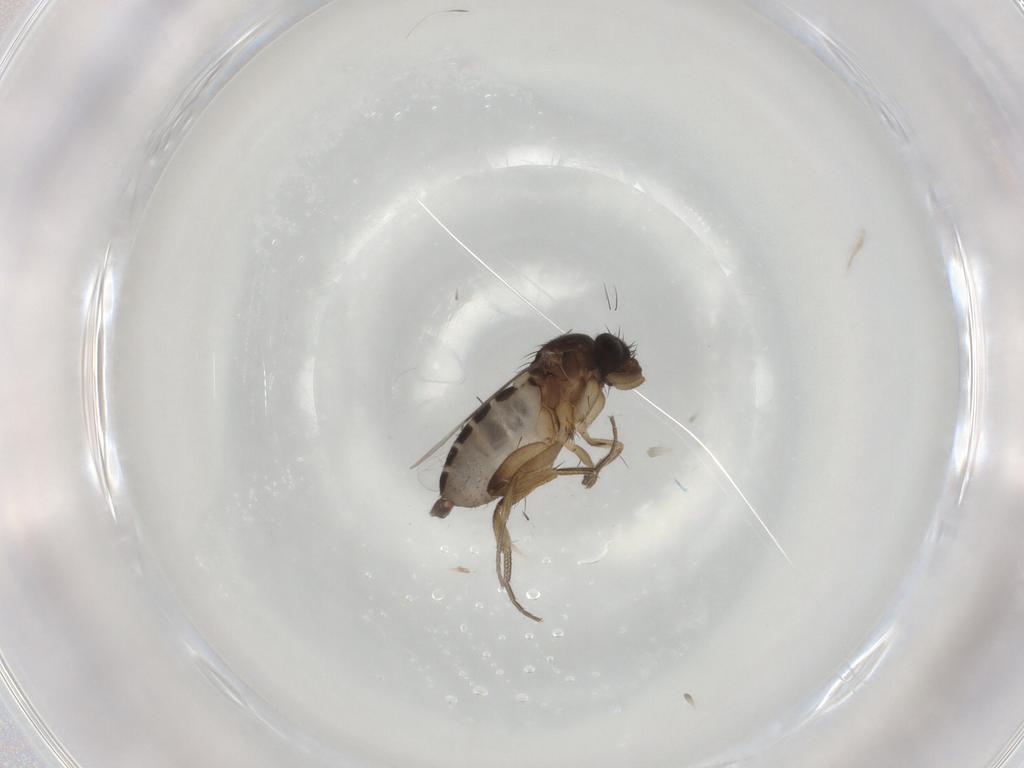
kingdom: Animalia
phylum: Arthropoda
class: Insecta
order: Diptera
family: Phoridae
